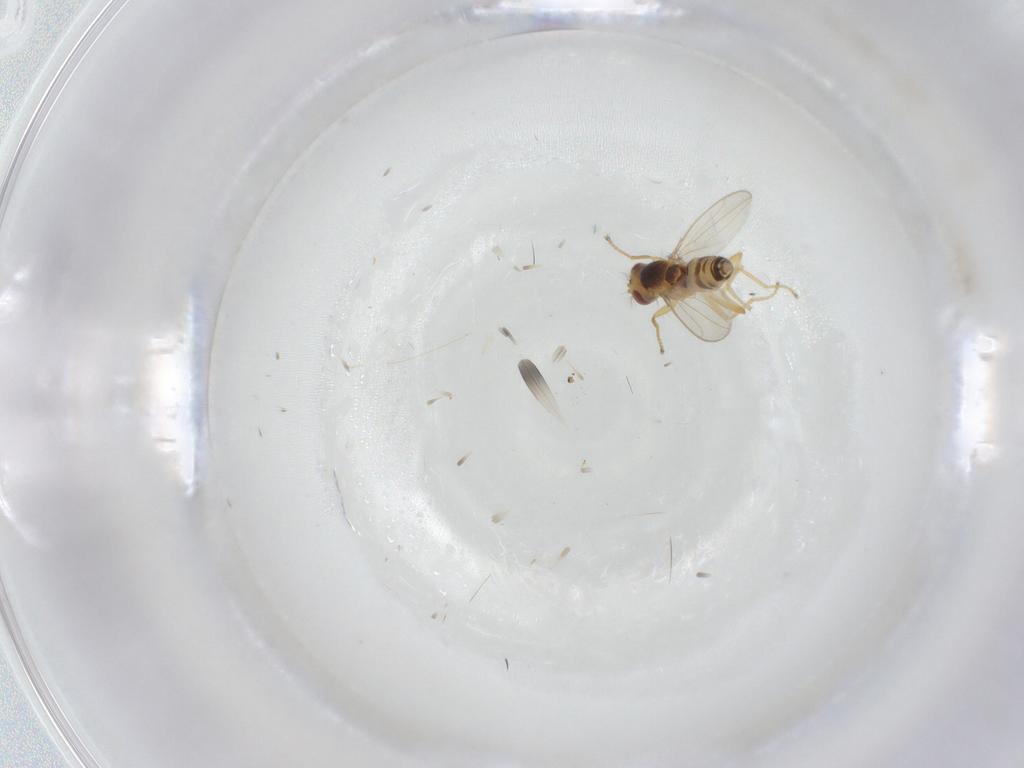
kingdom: Animalia
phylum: Arthropoda
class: Insecta
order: Diptera
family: Periscelididae
